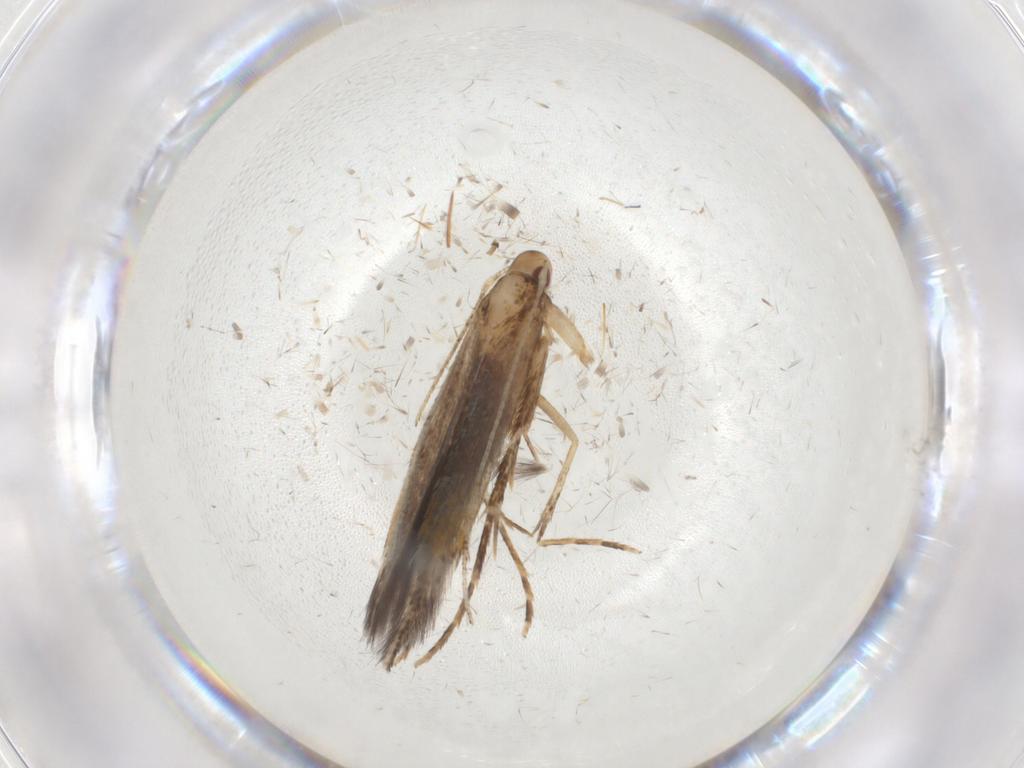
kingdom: Animalia
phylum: Arthropoda
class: Insecta
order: Lepidoptera
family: Cosmopterigidae
